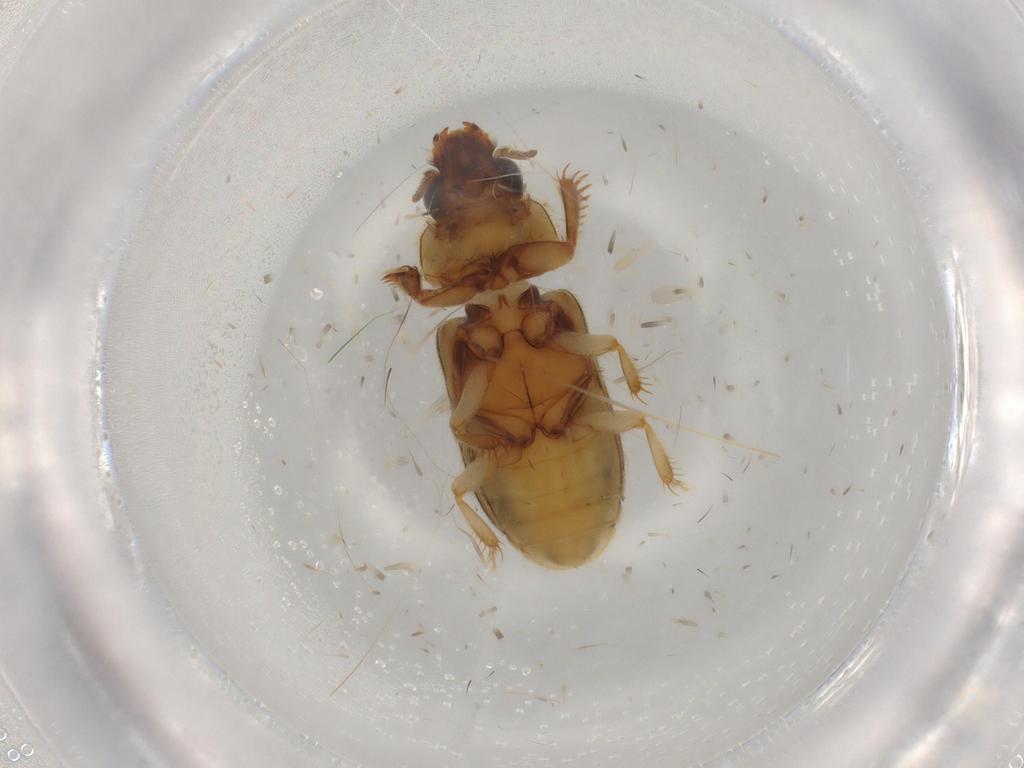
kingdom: Animalia
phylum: Arthropoda
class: Insecta
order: Coleoptera
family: Heteroceridae
